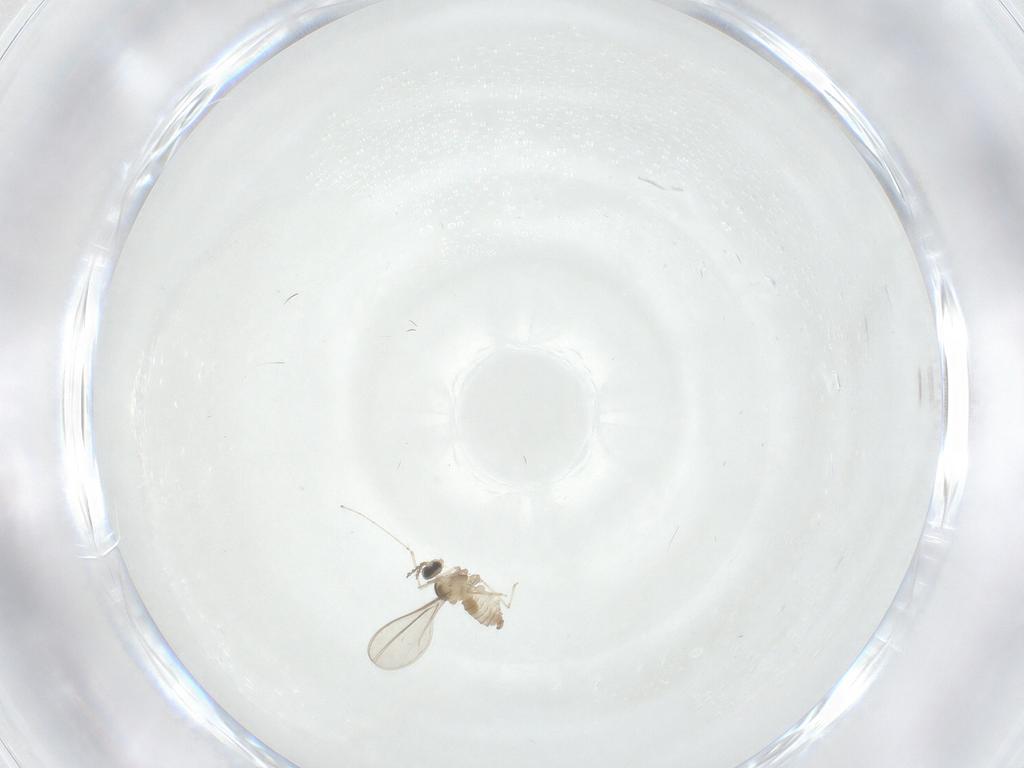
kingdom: Animalia
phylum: Arthropoda
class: Insecta
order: Diptera
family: Cecidomyiidae
